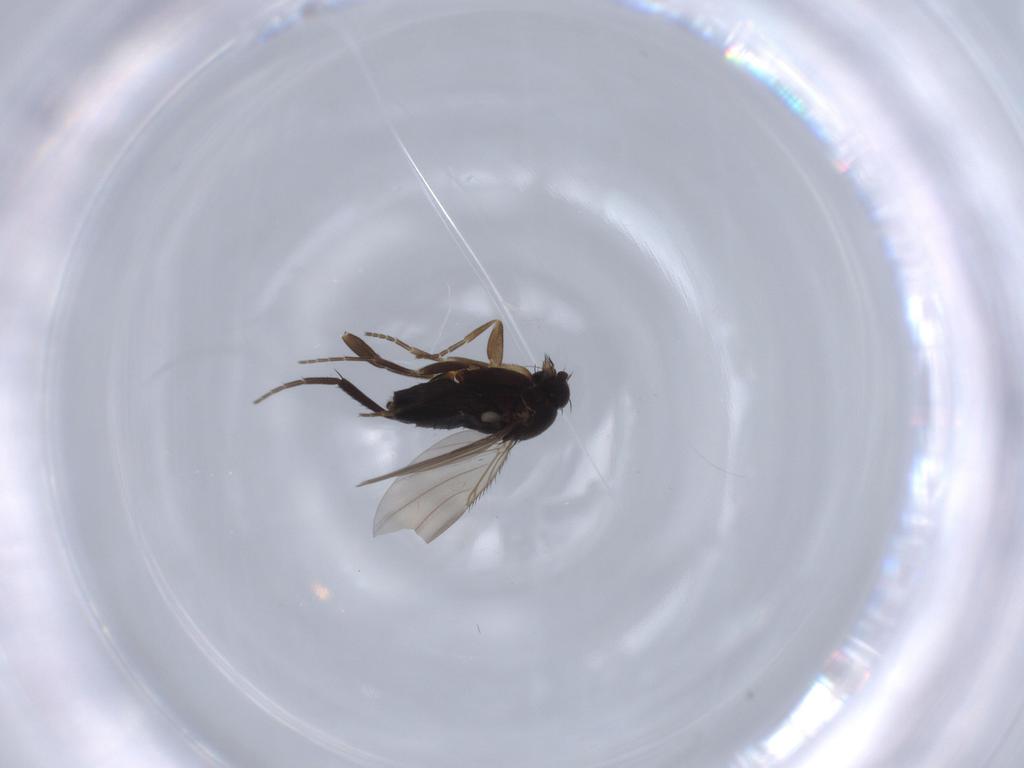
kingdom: Animalia
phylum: Arthropoda
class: Insecta
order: Diptera
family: Phoridae
